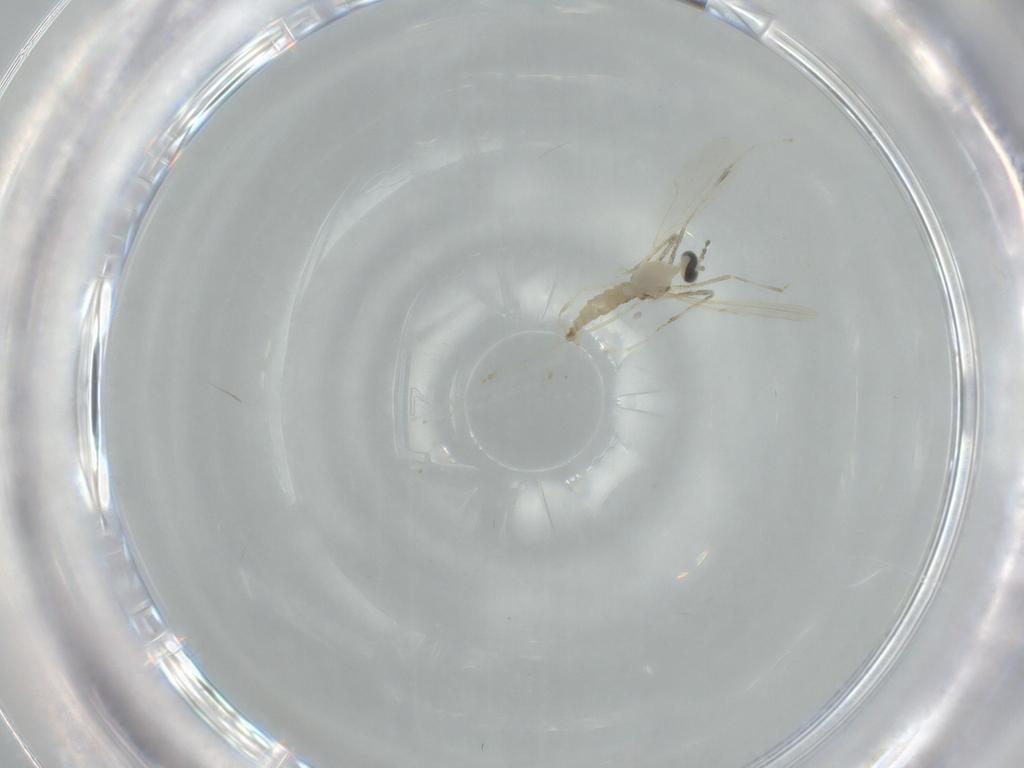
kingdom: Animalia
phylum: Arthropoda
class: Insecta
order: Diptera
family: Cecidomyiidae
